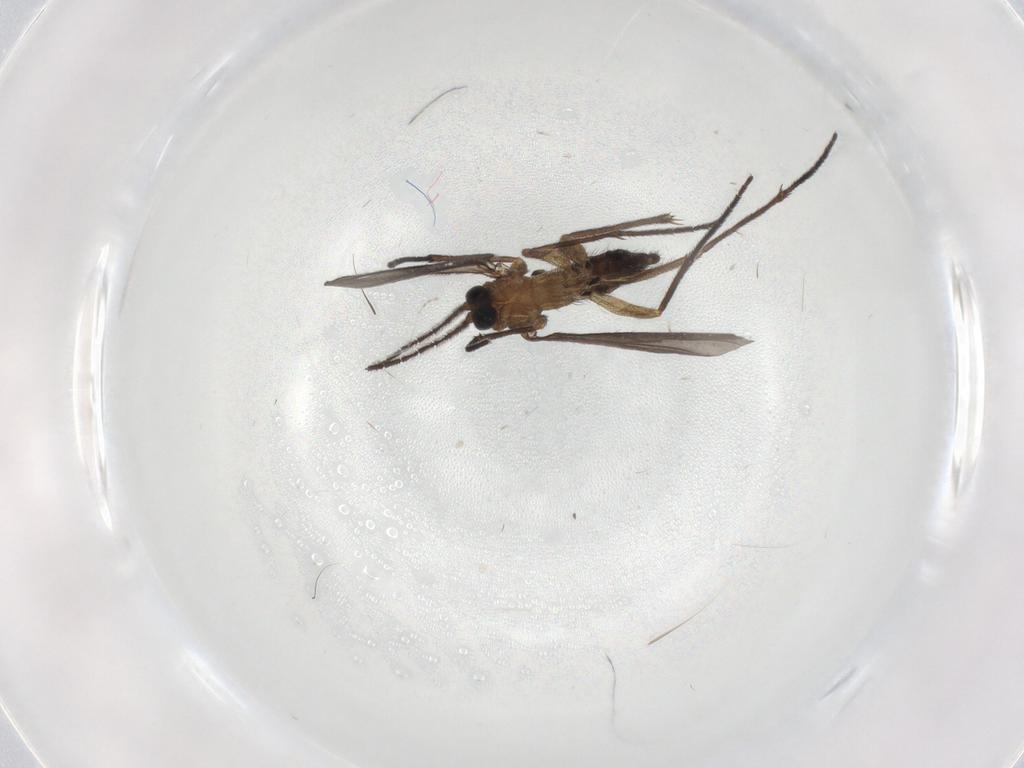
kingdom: Animalia
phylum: Arthropoda
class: Insecta
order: Diptera
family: Sciaridae
